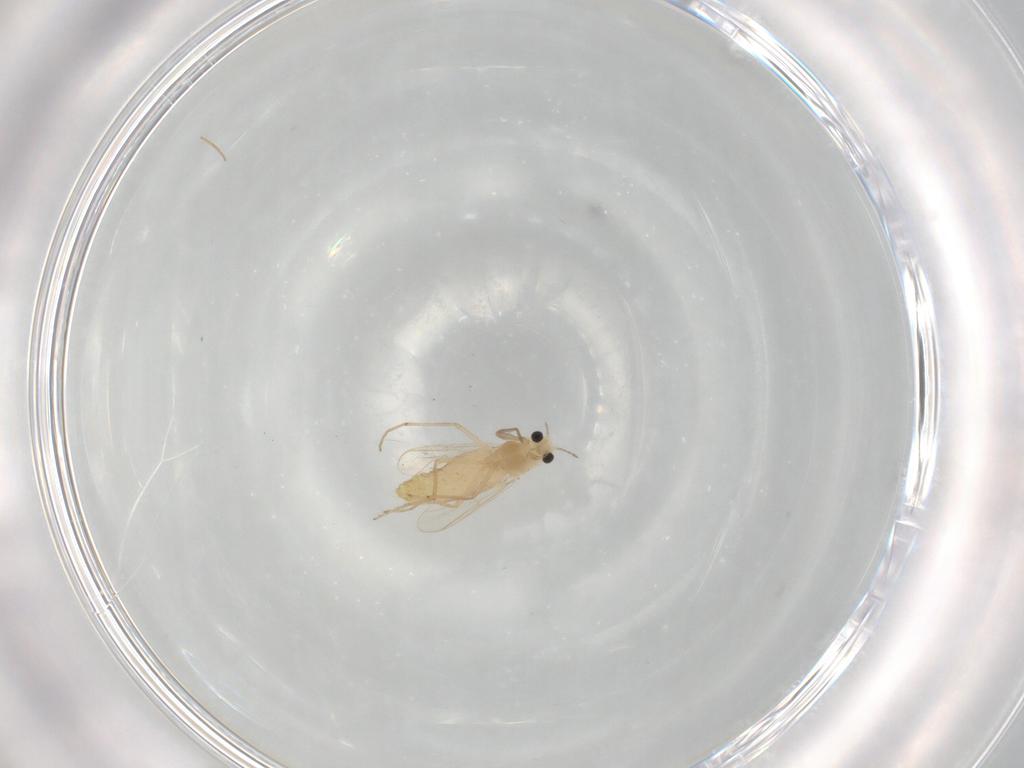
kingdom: Animalia
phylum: Arthropoda
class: Insecta
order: Diptera
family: Chironomidae
